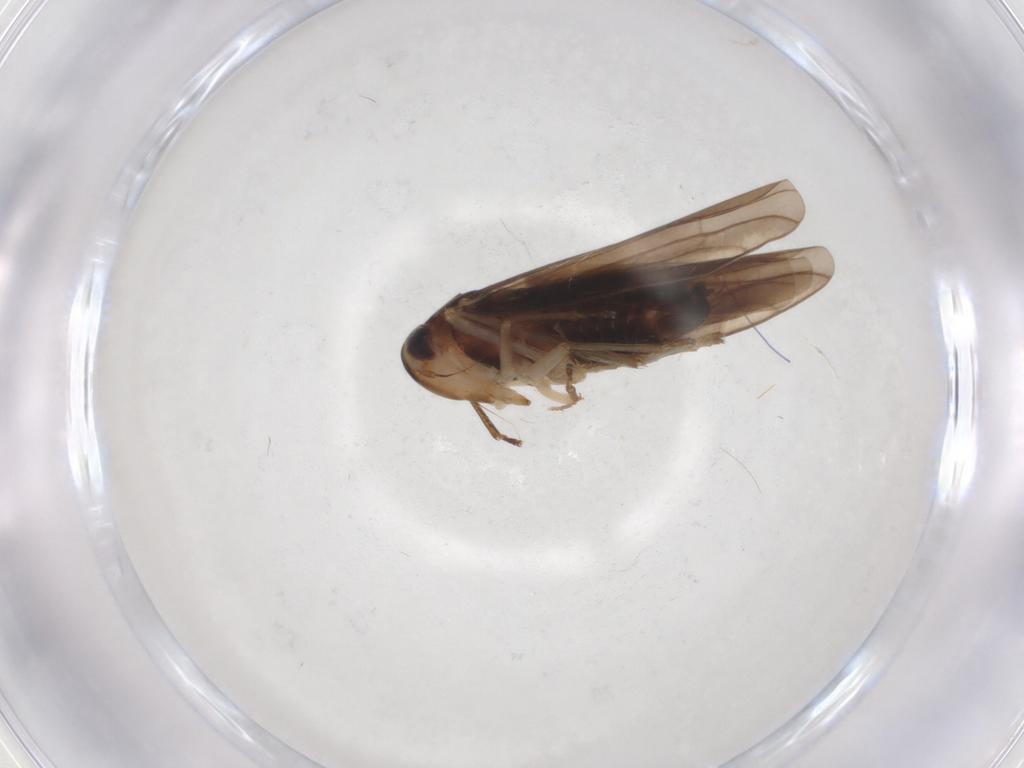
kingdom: Animalia
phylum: Arthropoda
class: Insecta
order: Hemiptera
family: Cicadellidae
